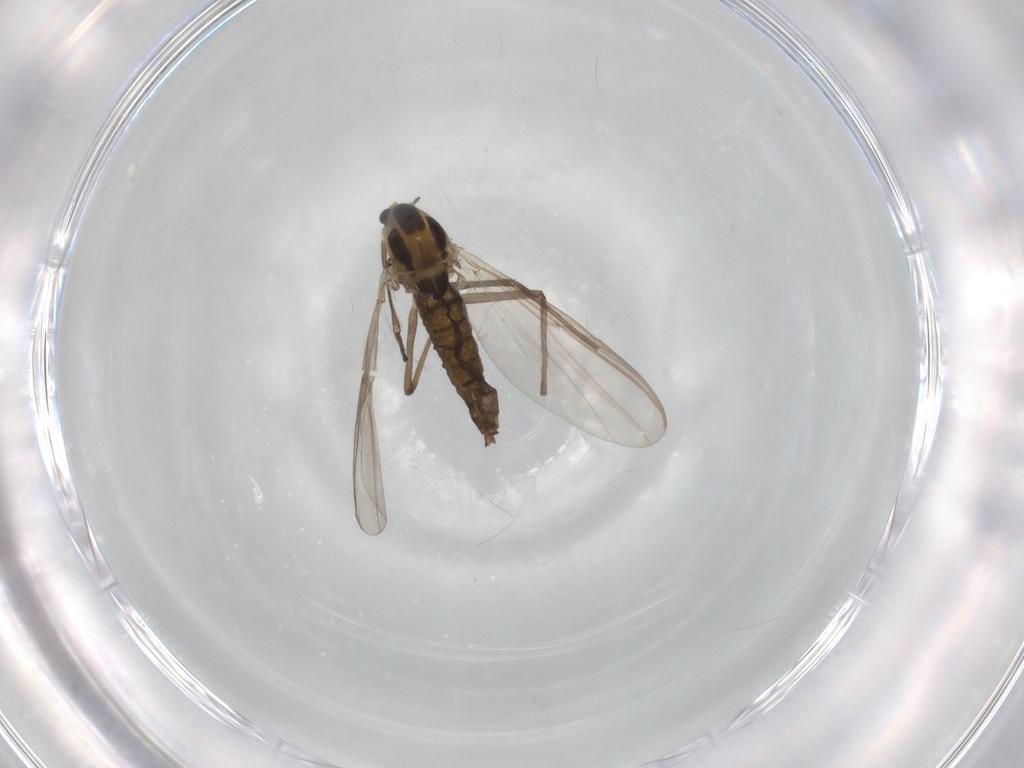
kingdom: Animalia
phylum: Arthropoda
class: Insecta
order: Diptera
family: Chironomidae
